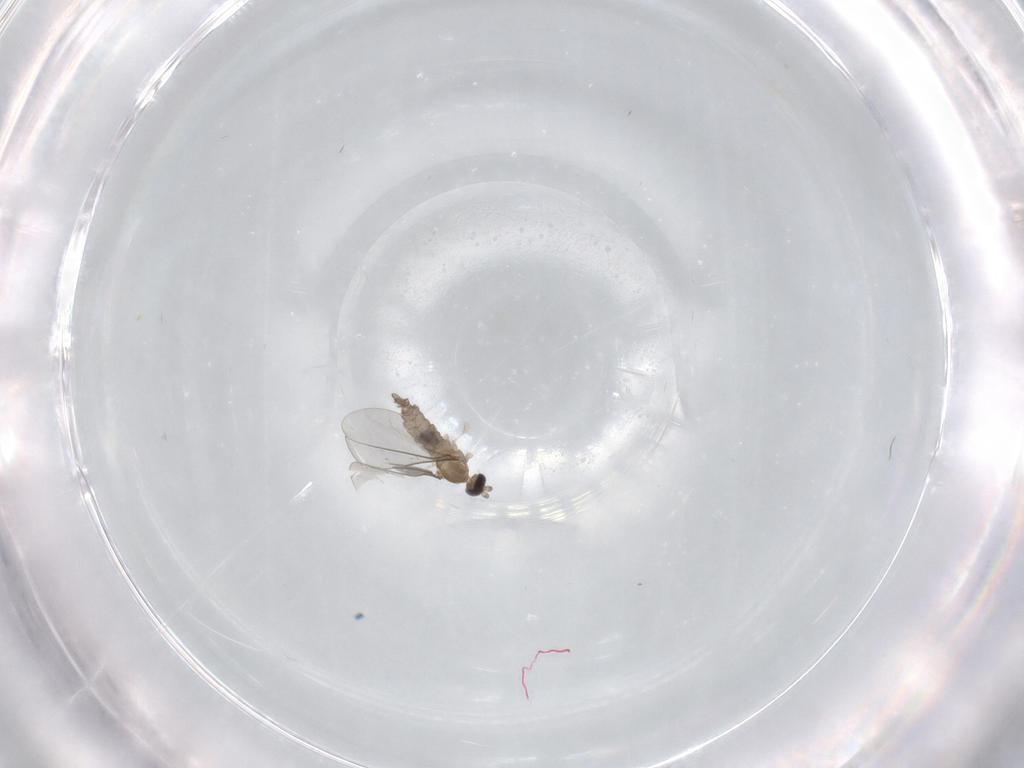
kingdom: Animalia
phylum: Arthropoda
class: Insecta
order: Diptera
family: Cecidomyiidae
